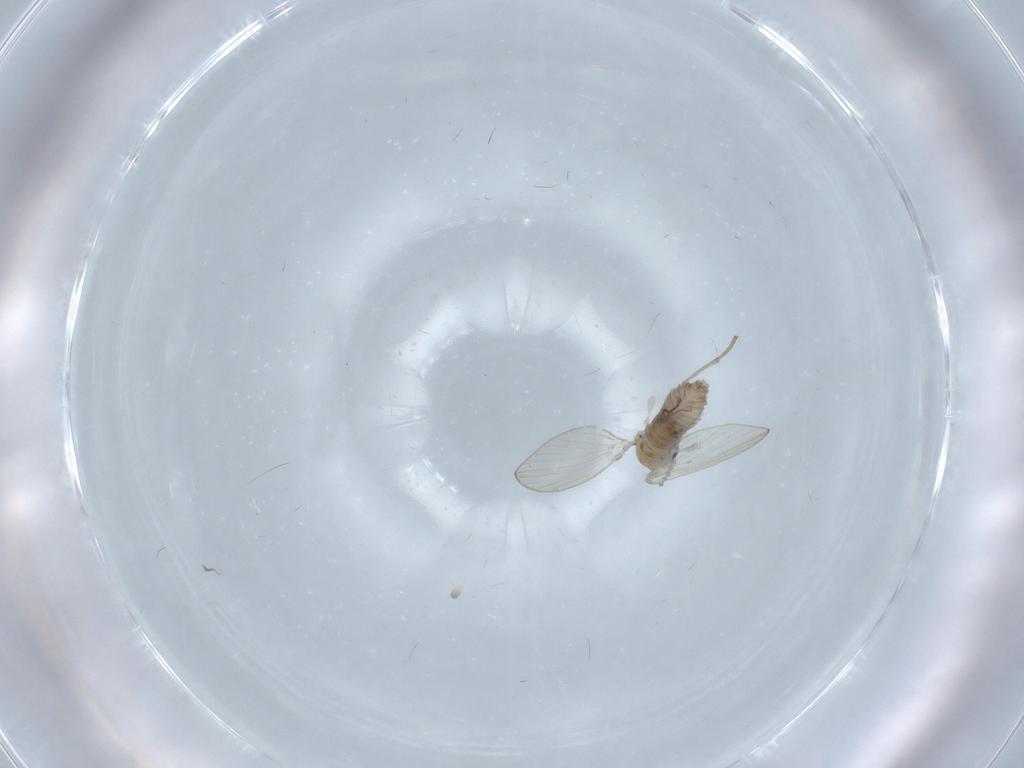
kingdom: Animalia
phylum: Arthropoda
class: Insecta
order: Diptera
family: Psychodidae
